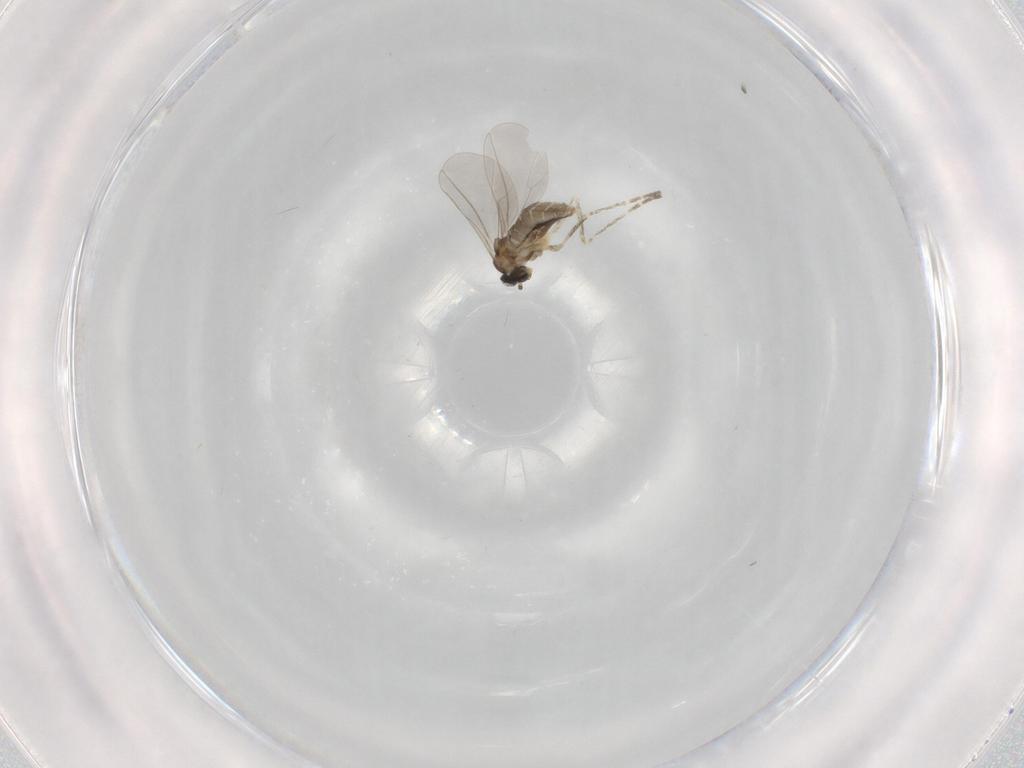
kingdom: Animalia
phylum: Arthropoda
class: Insecta
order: Diptera
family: Cecidomyiidae
